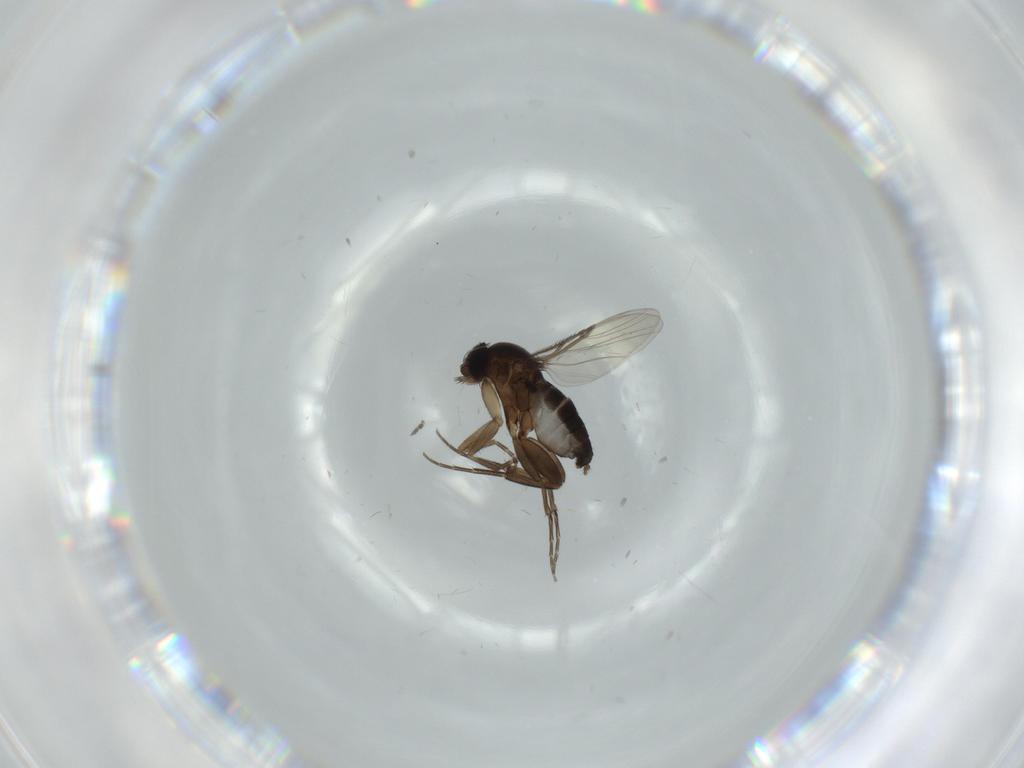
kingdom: Animalia
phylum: Arthropoda
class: Insecta
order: Diptera
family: Phoridae
